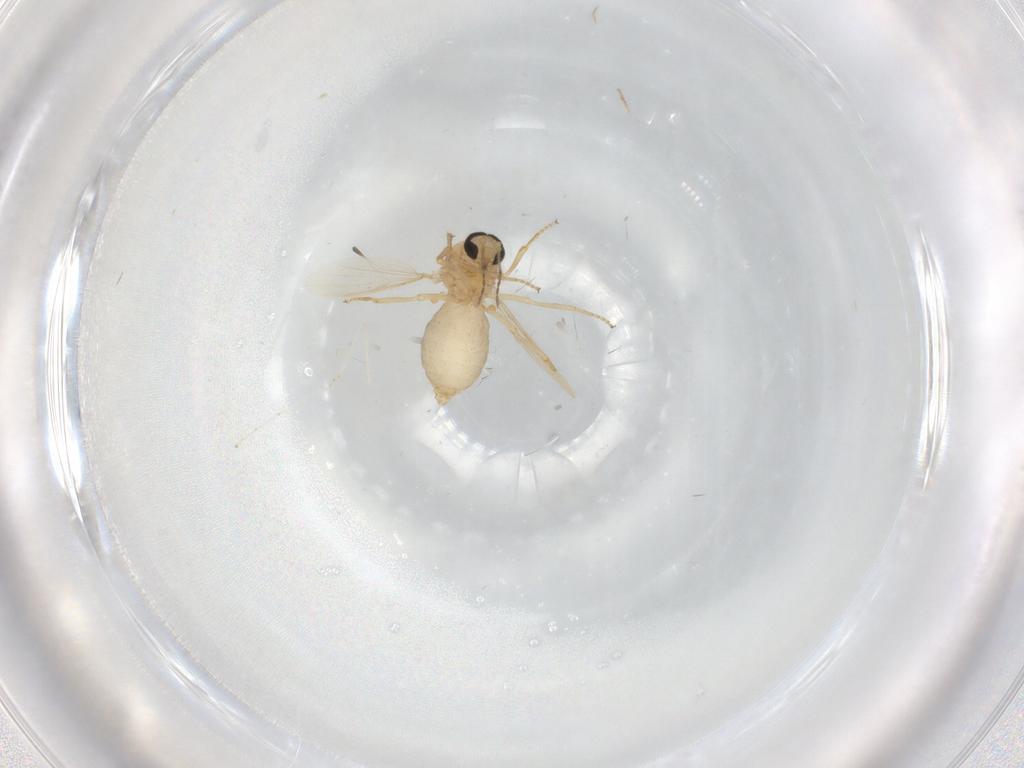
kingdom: Animalia
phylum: Arthropoda
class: Insecta
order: Diptera
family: Ceratopogonidae
